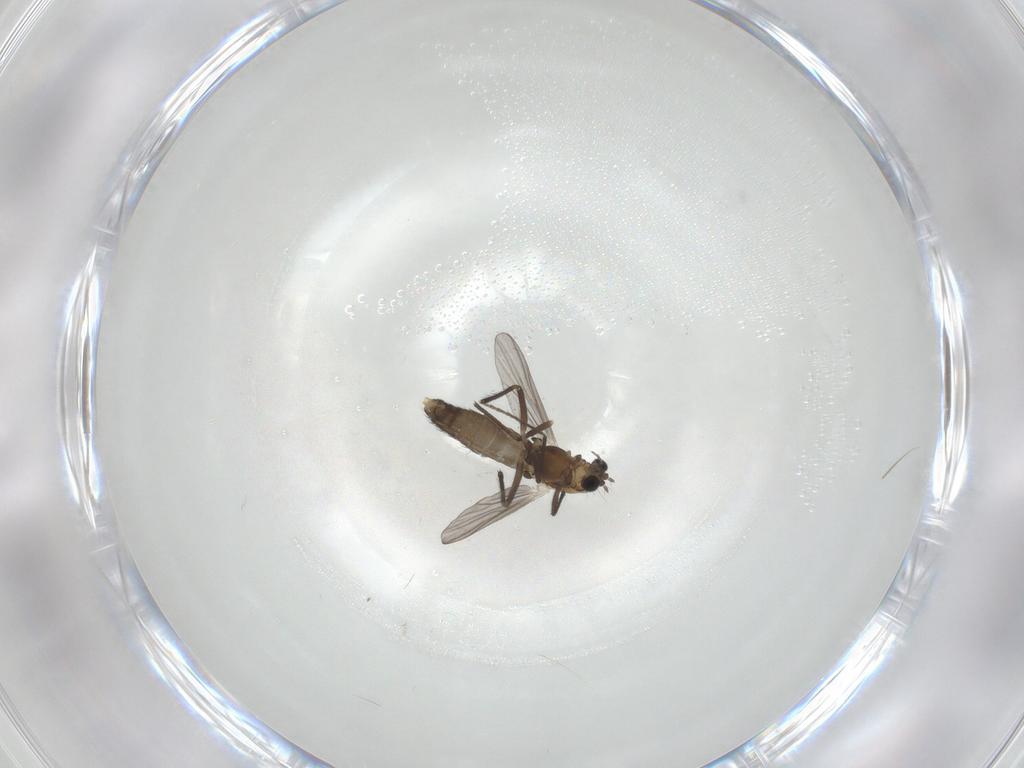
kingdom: Animalia
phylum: Arthropoda
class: Insecta
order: Diptera
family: Chironomidae
